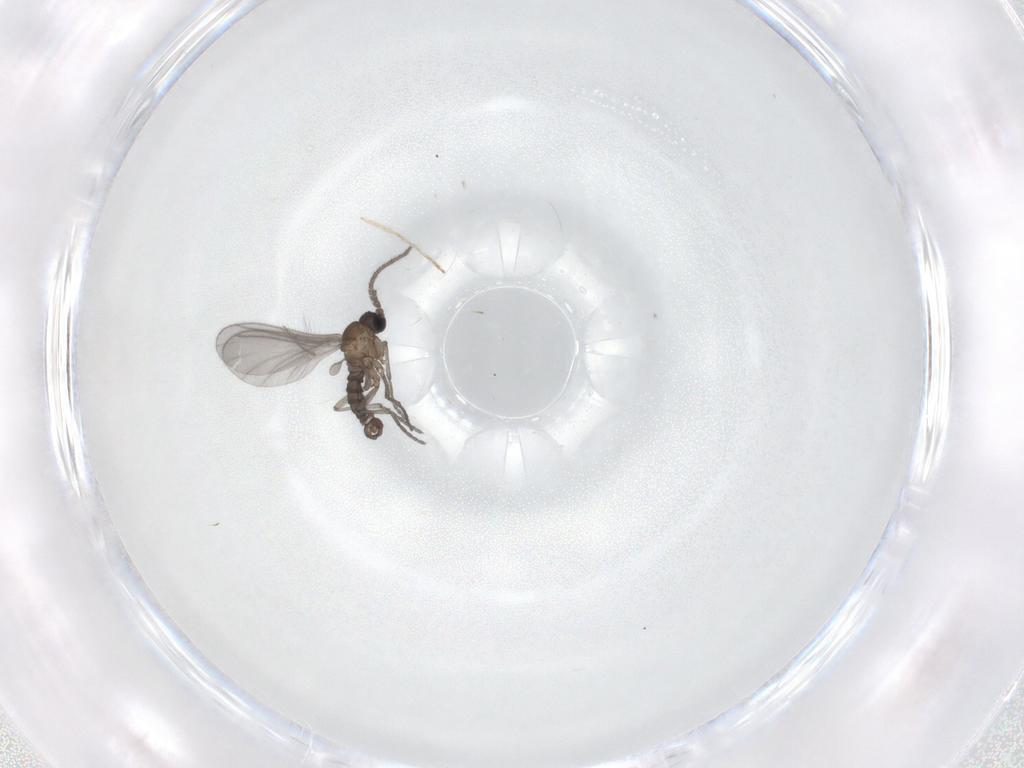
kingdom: Animalia
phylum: Arthropoda
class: Insecta
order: Diptera
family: Sciaridae
